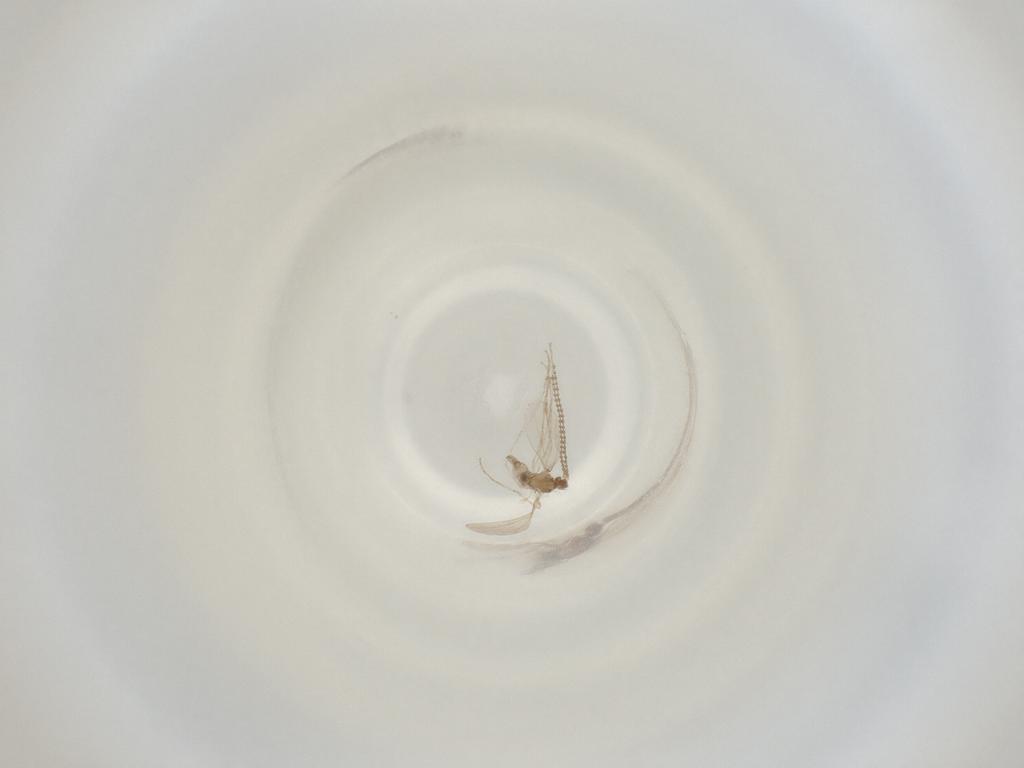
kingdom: Animalia
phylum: Arthropoda
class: Insecta
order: Diptera
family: Cecidomyiidae
